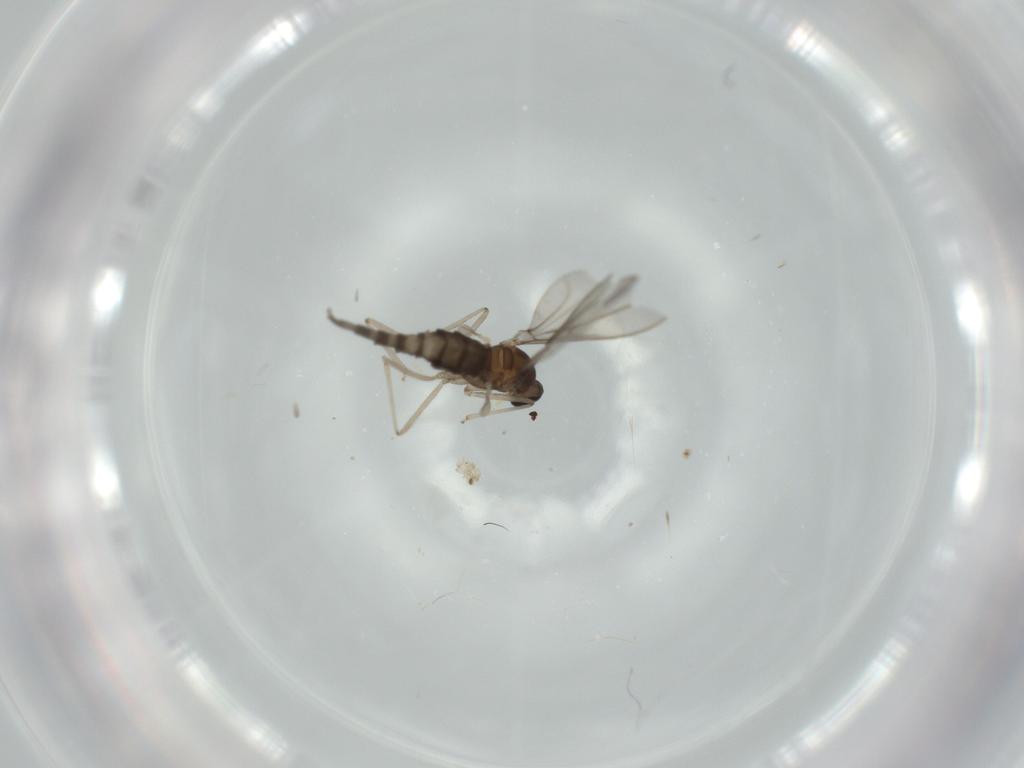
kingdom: Animalia
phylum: Arthropoda
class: Insecta
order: Diptera
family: Cecidomyiidae
